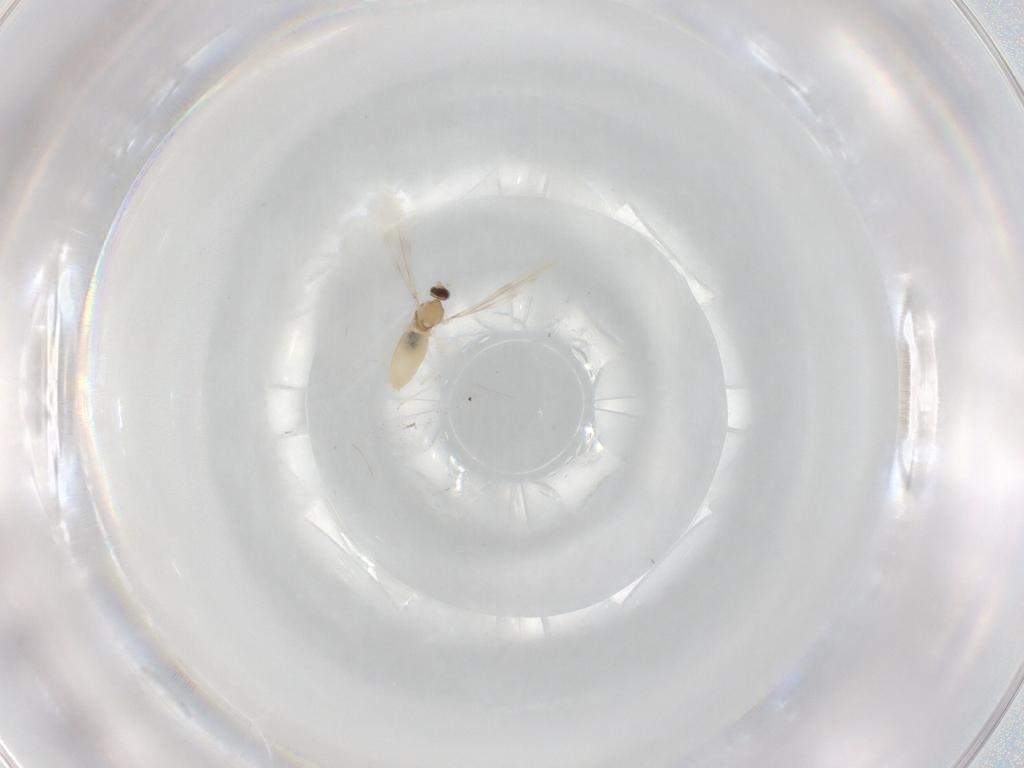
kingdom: Animalia
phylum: Arthropoda
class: Insecta
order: Diptera
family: Cecidomyiidae
